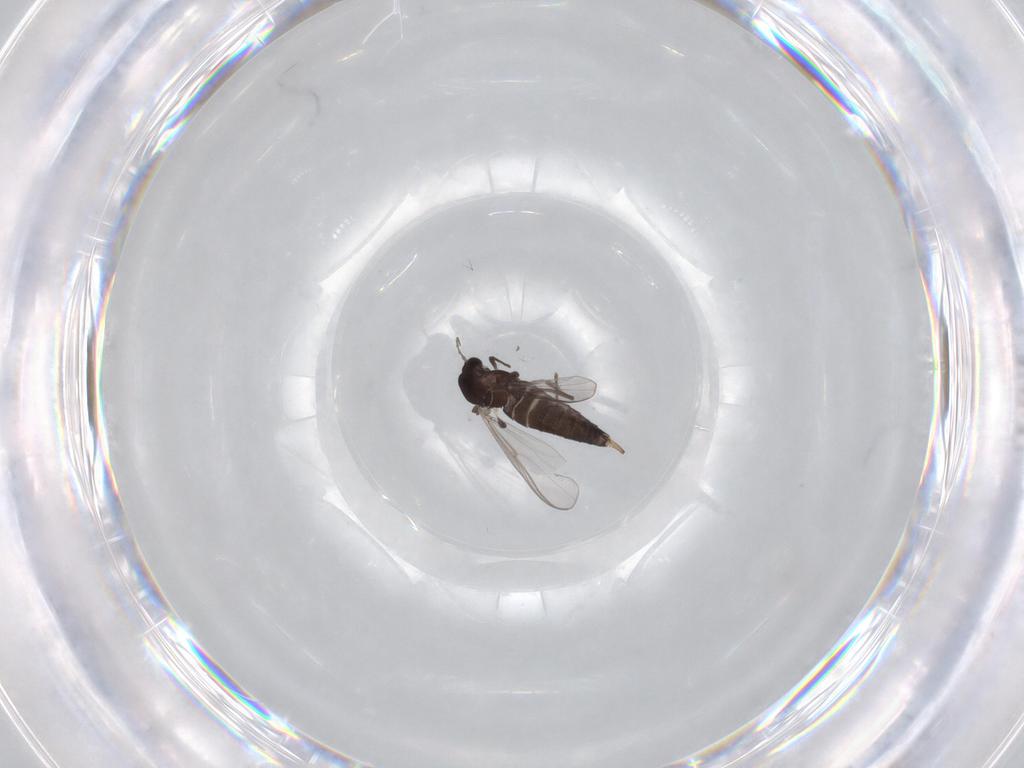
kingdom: Animalia
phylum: Arthropoda
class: Insecta
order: Diptera
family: Chironomidae
